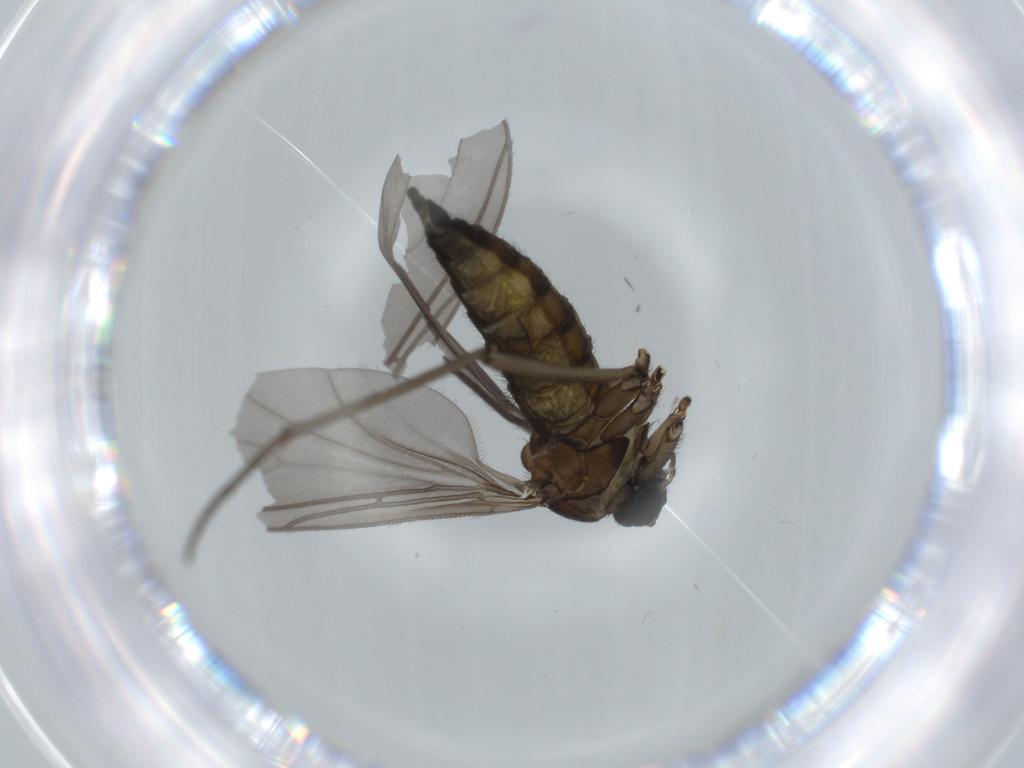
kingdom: Animalia
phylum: Arthropoda
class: Insecta
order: Diptera
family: Sciaridae
